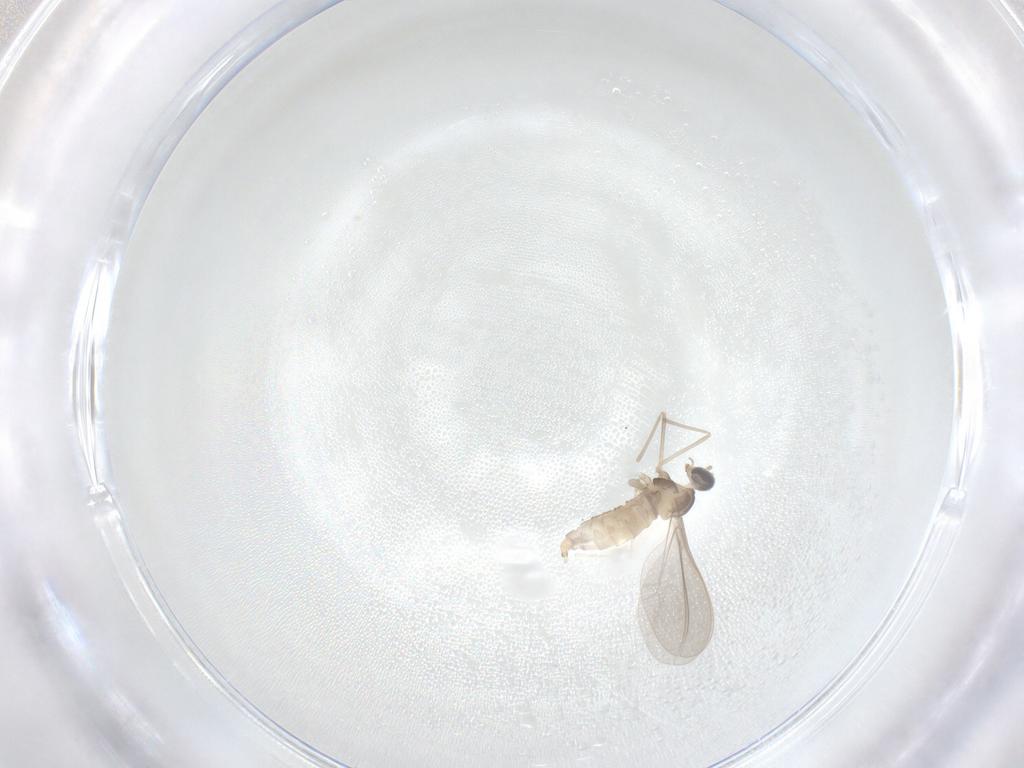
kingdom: Animalia
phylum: Arthropoda
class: Insecta
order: Diptera
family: Cecidomyiidae
